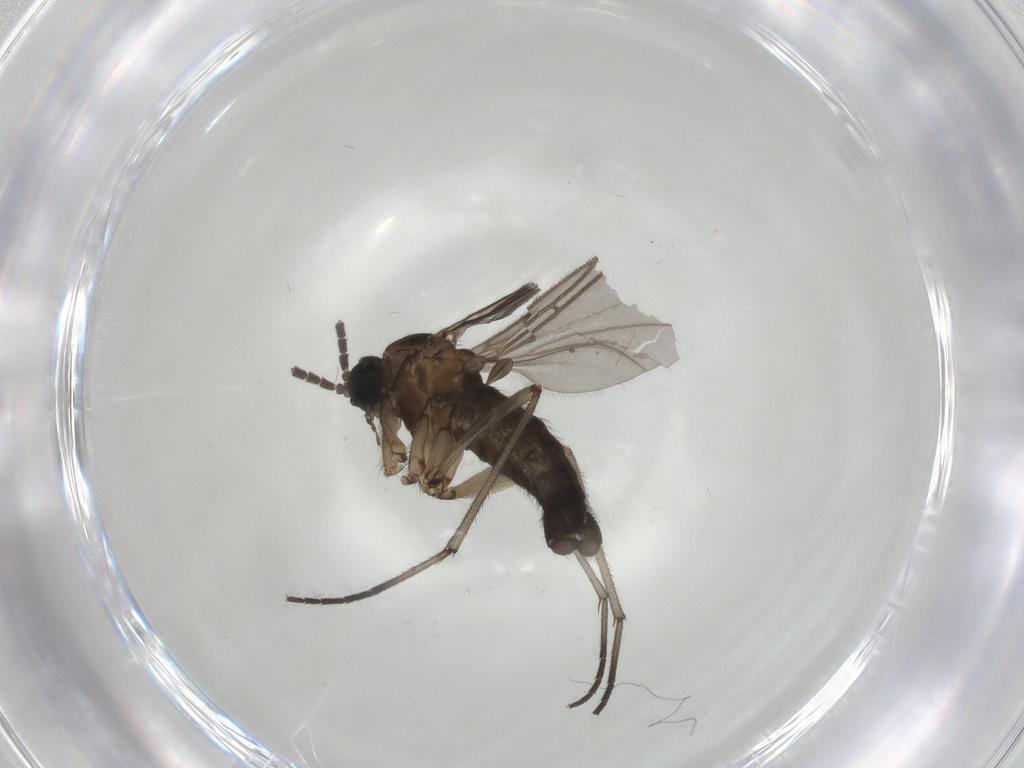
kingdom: Animalia
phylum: Arthropoda
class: Insecta
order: Diptera
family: Sciaridae
